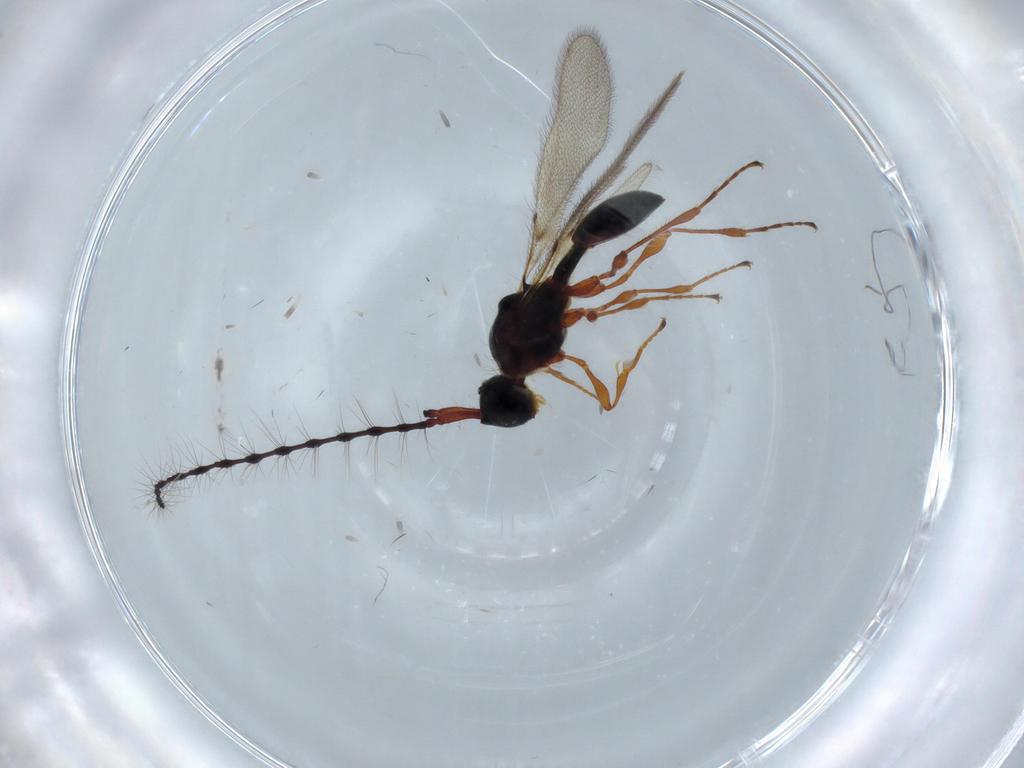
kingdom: Animalia
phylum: Arthropoda
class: Insecta
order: Hymenoptera
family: Diapriidae
